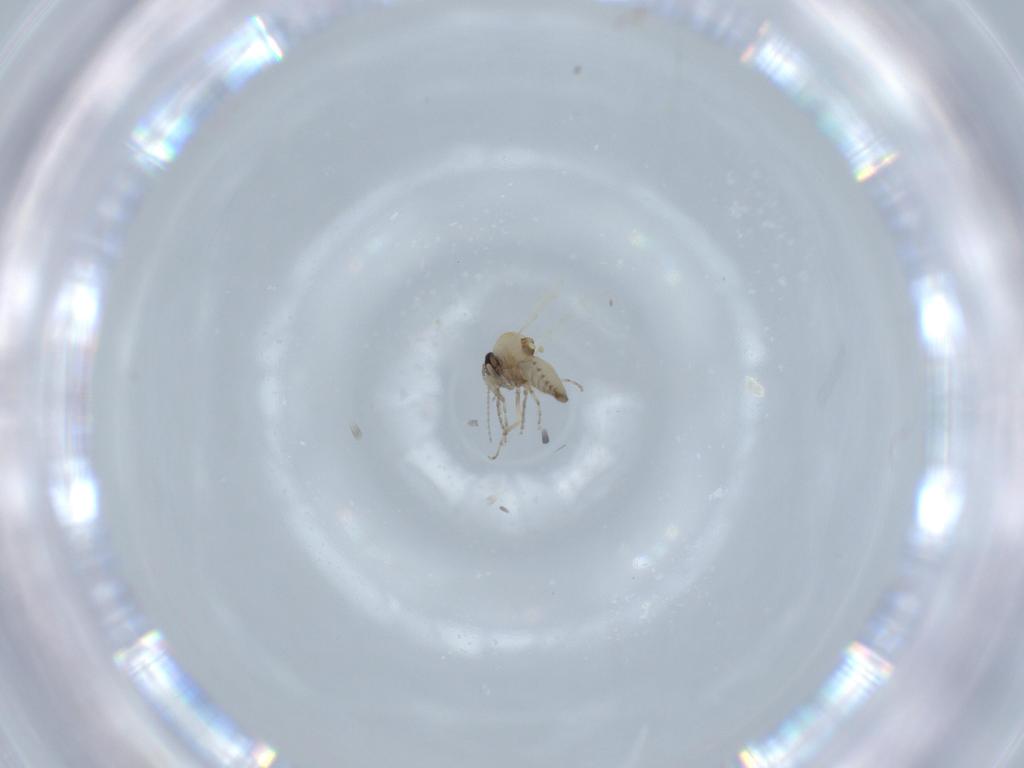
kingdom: Animalia
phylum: Arthropoda
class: Insecta
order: Diptera
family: Ceratopogonidae
